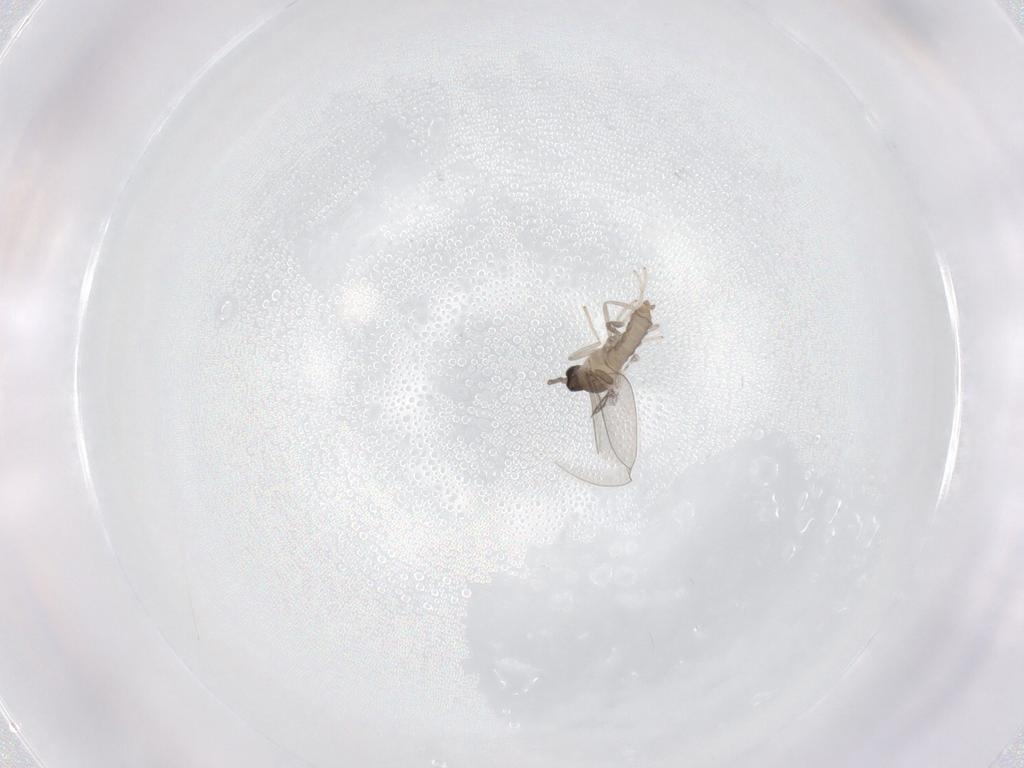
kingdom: Animalia
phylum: Arthropoda
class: Insecta
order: Diptera
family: Cecidomyiidae
